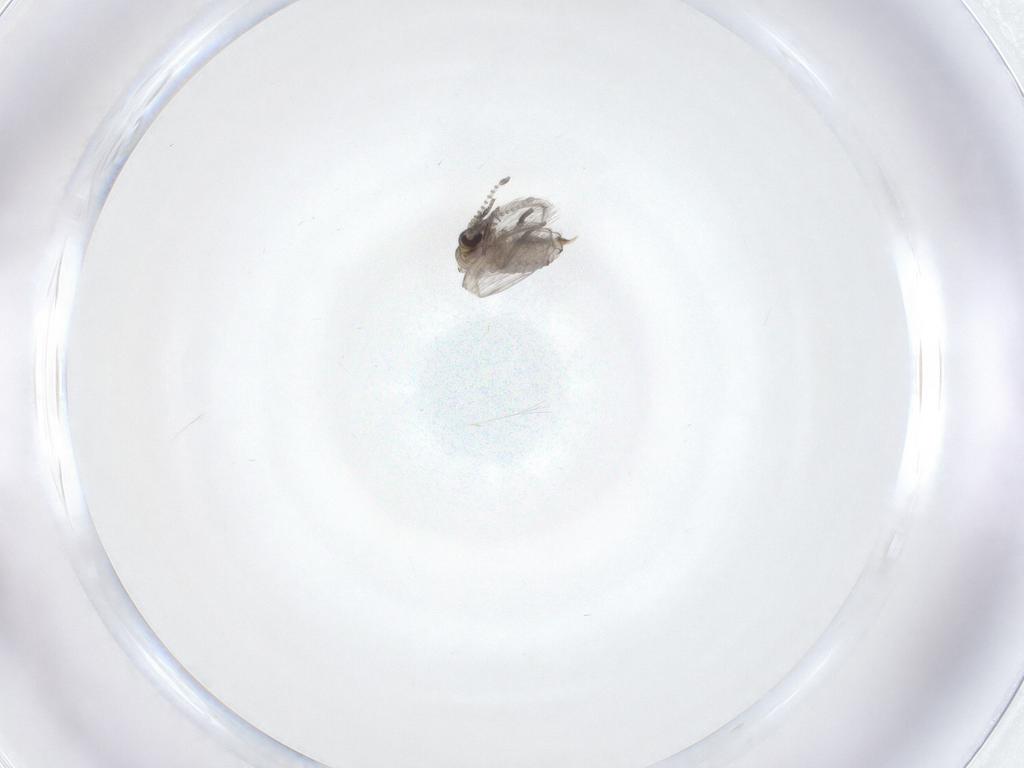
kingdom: Animalia
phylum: Arthropoda
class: Insecta
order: Diptera
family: Psychodidae
